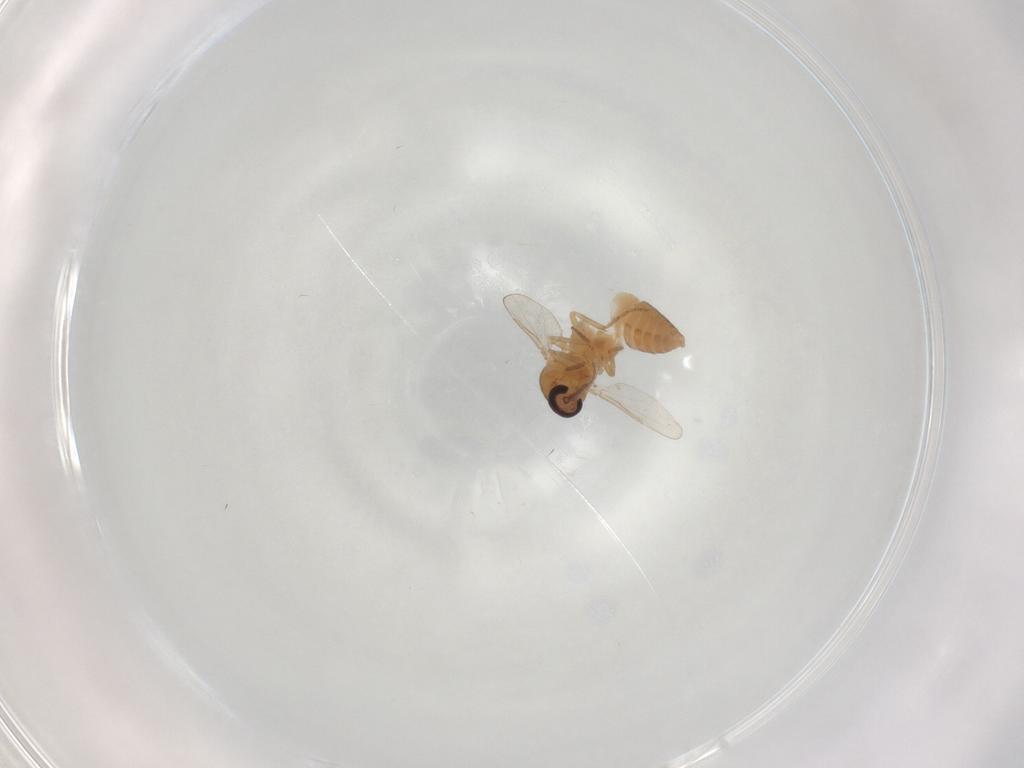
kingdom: Animalia
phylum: Arthropoda
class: Insecta
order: Diptera
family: Ceratopogonidae
